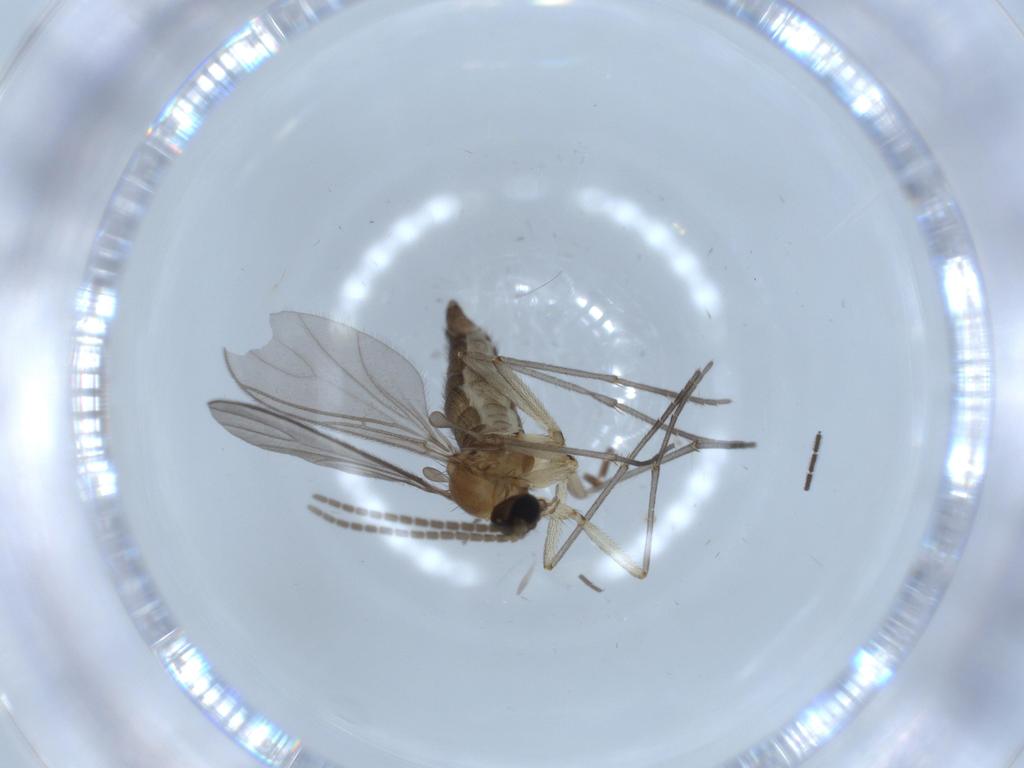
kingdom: Animalia
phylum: Arthropoda
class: Insecta
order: Diptera
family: Sciaridae
